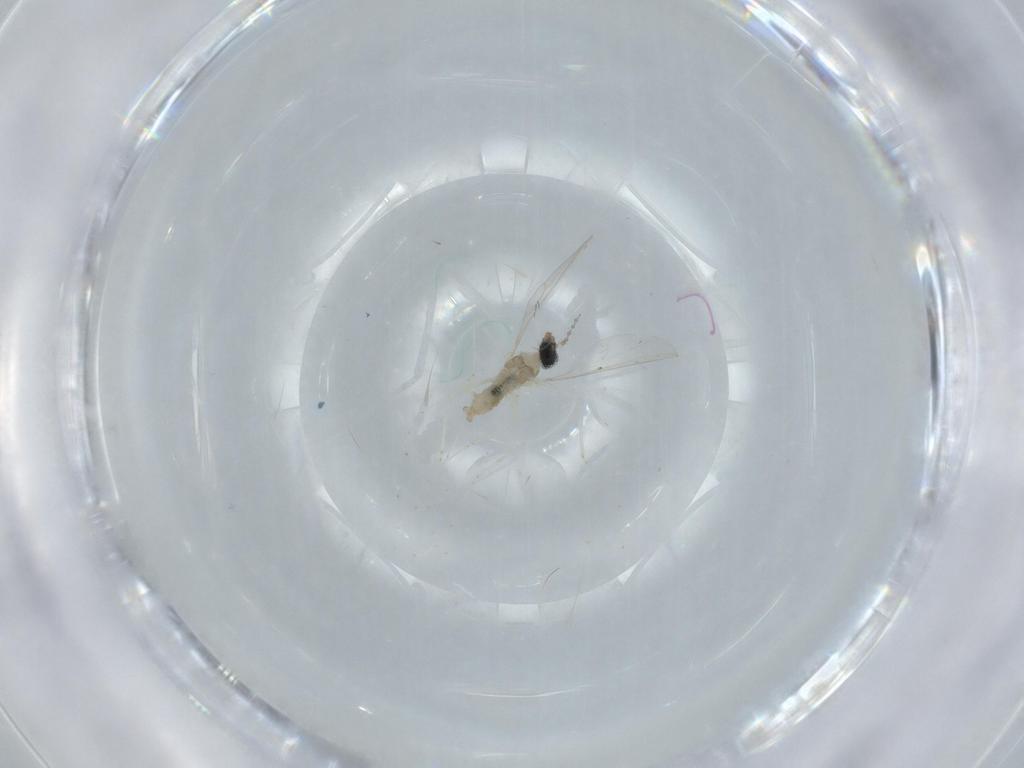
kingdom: Animalia
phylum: Arthropoda
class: Insecta
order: Diptera
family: Cecidomyiidae
